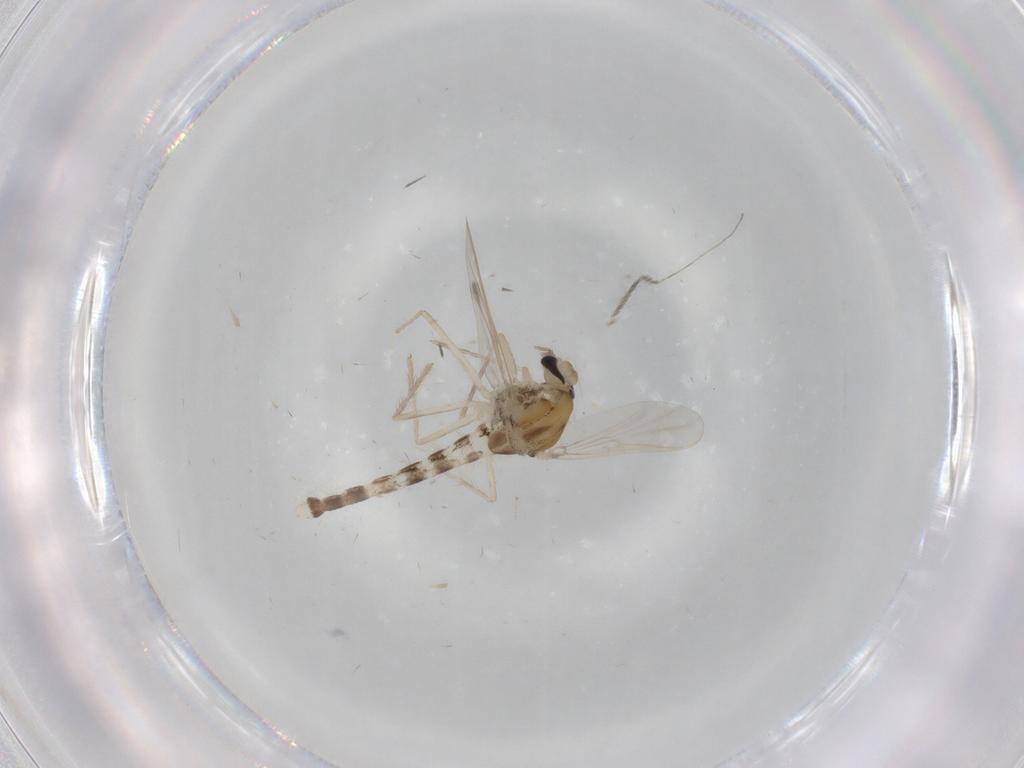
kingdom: Animalia
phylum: Arthropoda
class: Insecta
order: Diptera
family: Chironomidae
